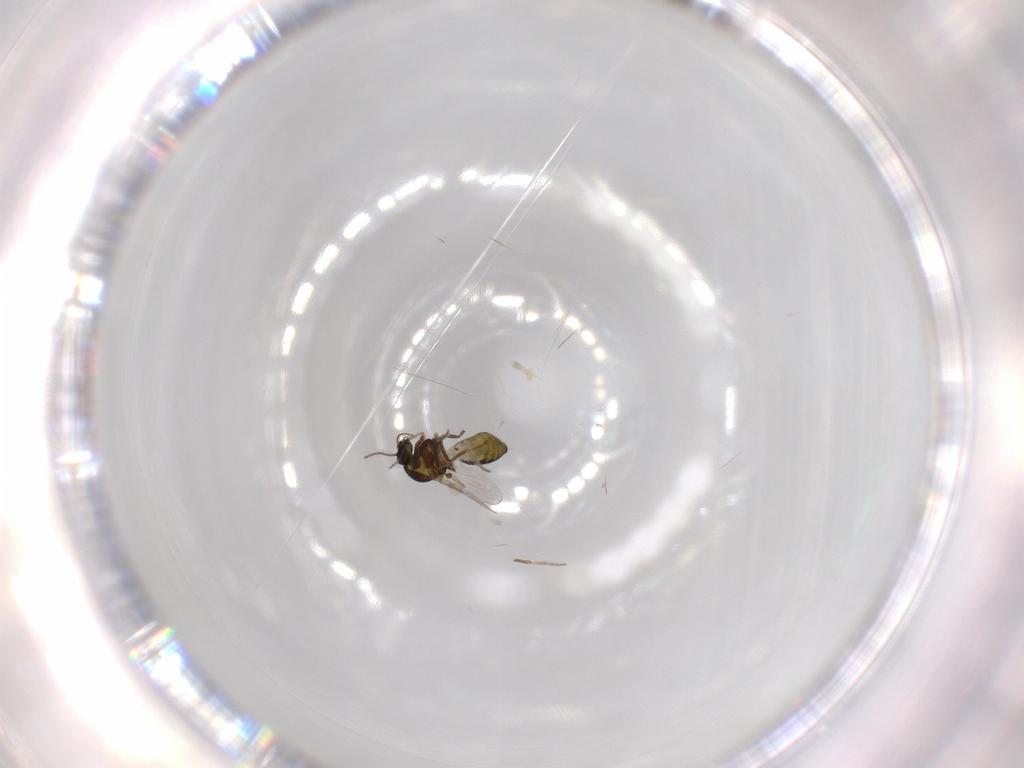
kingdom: Animalia
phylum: Arthropoda
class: Insecta
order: Diptera
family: Ceratopogonidae
